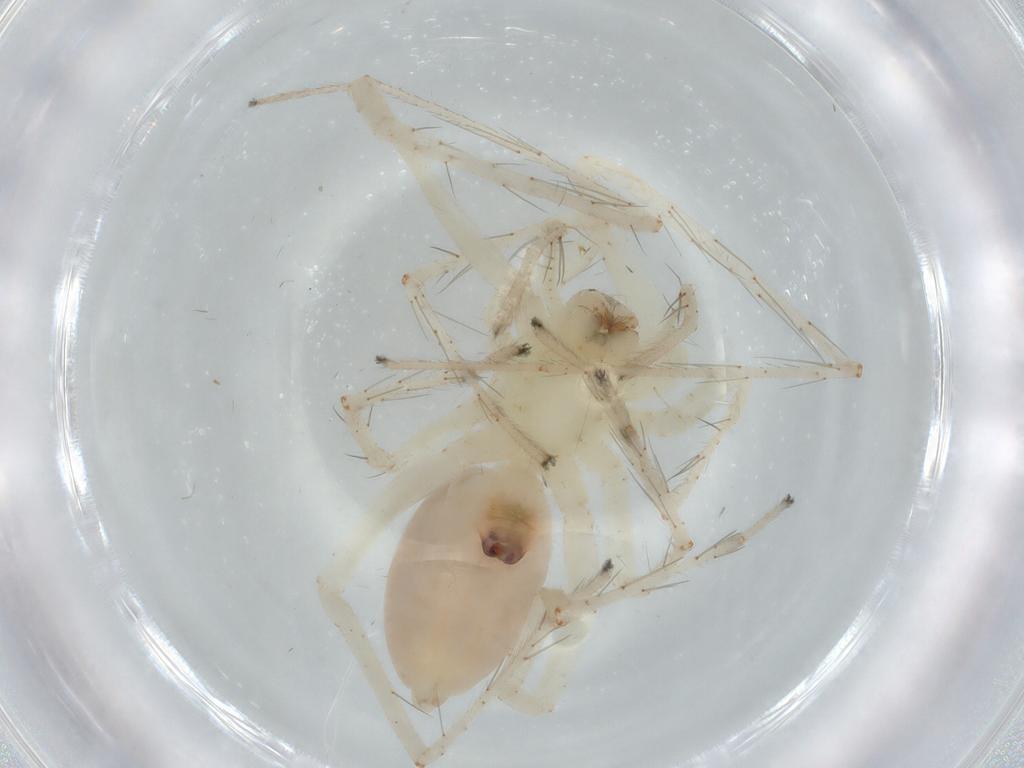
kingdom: Animalia
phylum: Arthropoda
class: Arachnida
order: Araneae
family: Anyphaenidae
